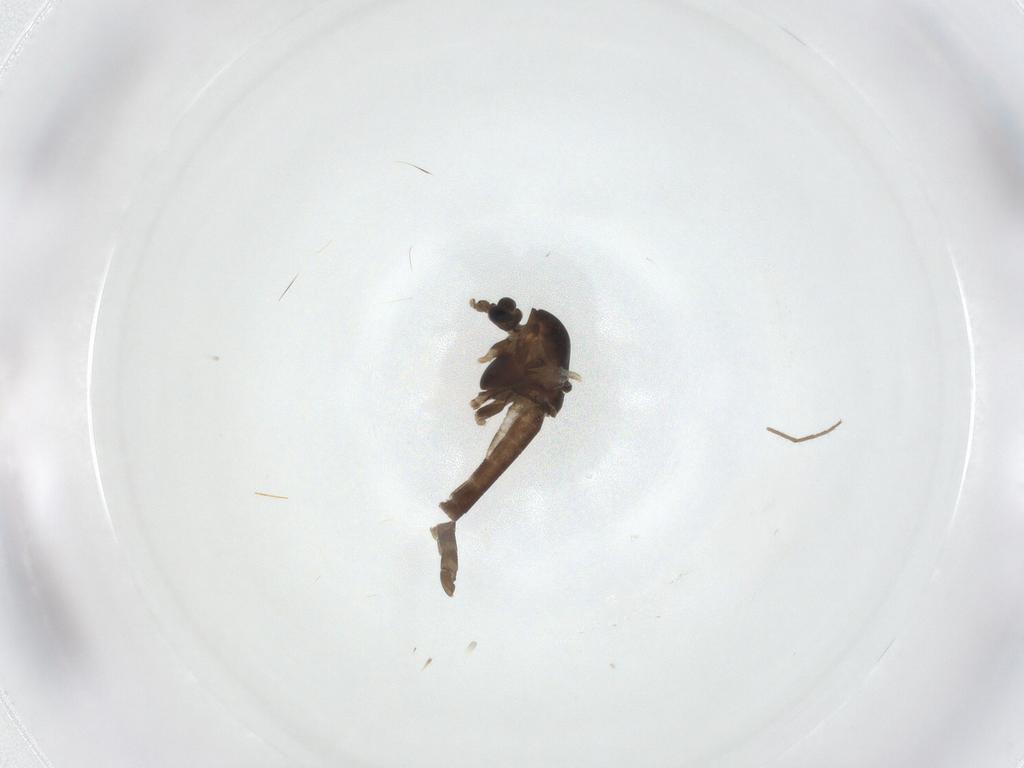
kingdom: Animalia
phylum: Arthropoda
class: Insecta
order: Diptera
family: Chironomidae
